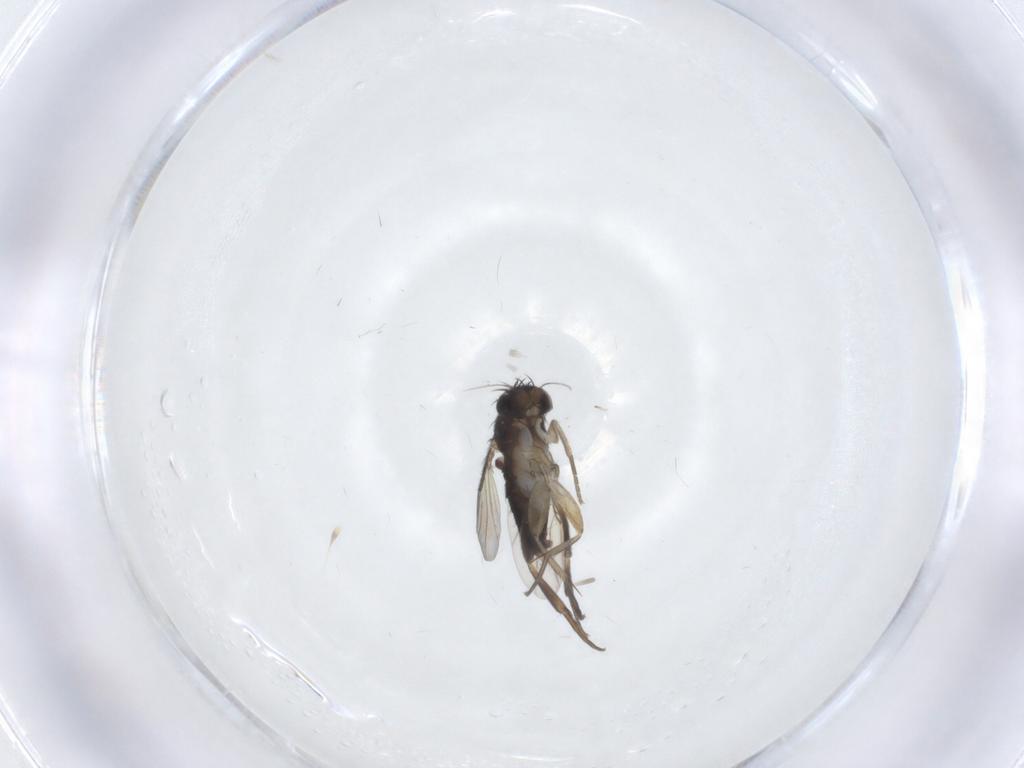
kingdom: Animalia
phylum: Arthropoda
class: Insecta
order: Diptera
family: Phoridae
